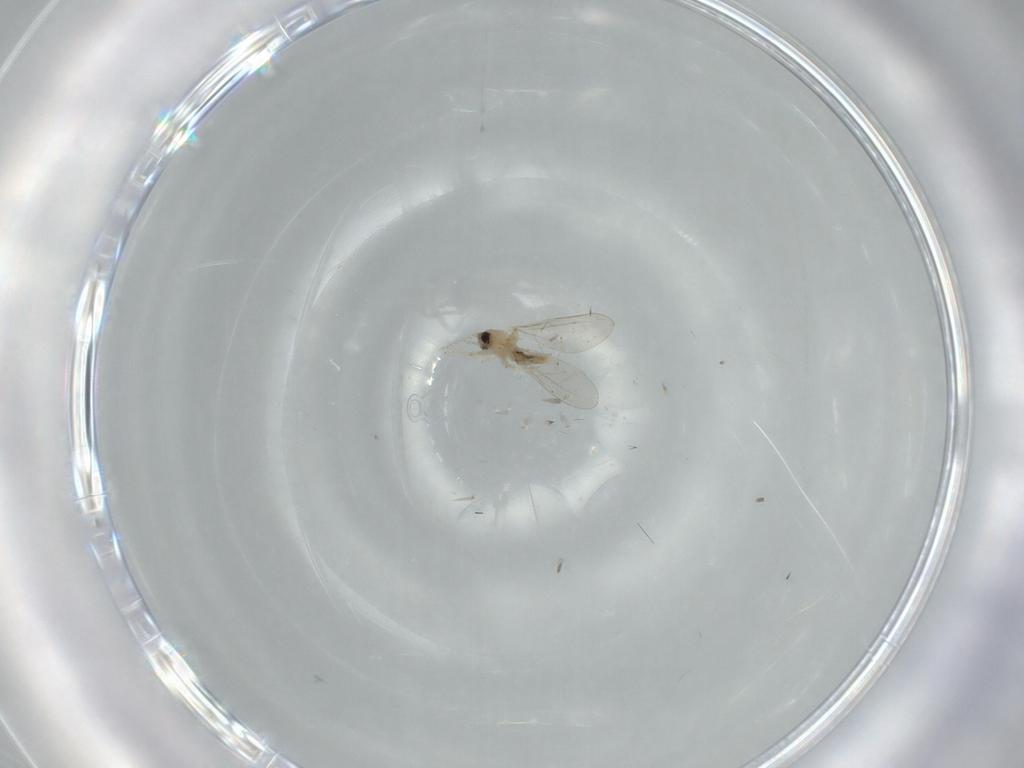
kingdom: Animalia
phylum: Arthropoda
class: Insecta
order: Diptera
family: Cecidomyiidae
